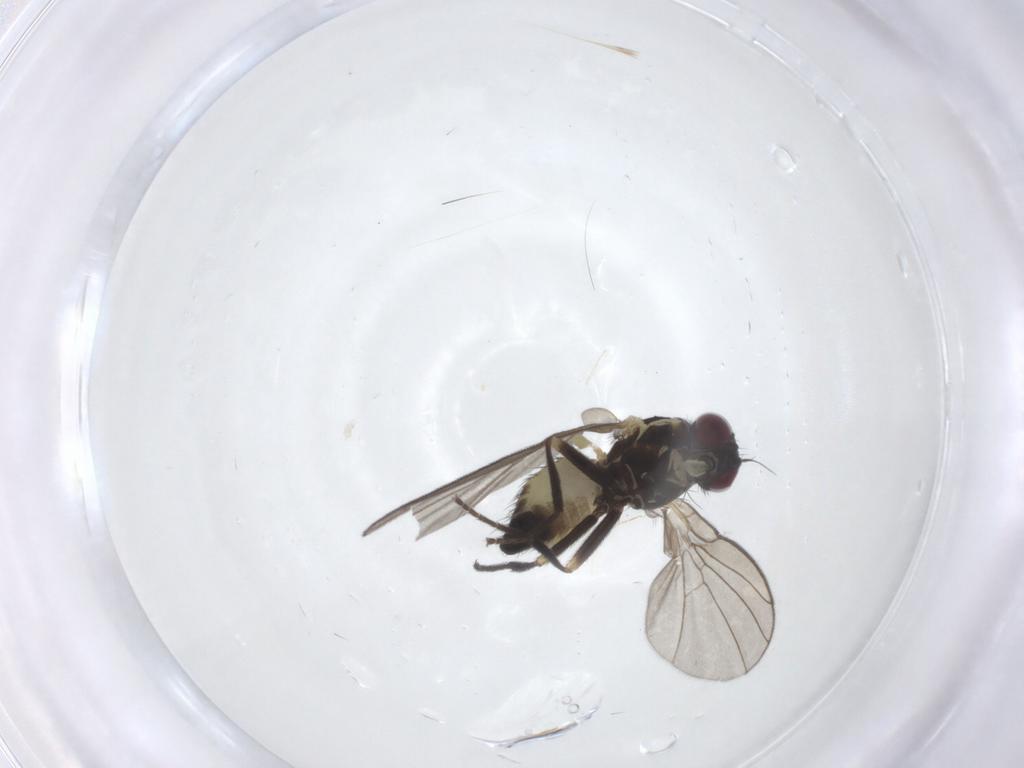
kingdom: Animalia
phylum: Arthropoda
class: Insecta
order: Diptera
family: Agromyzidae
